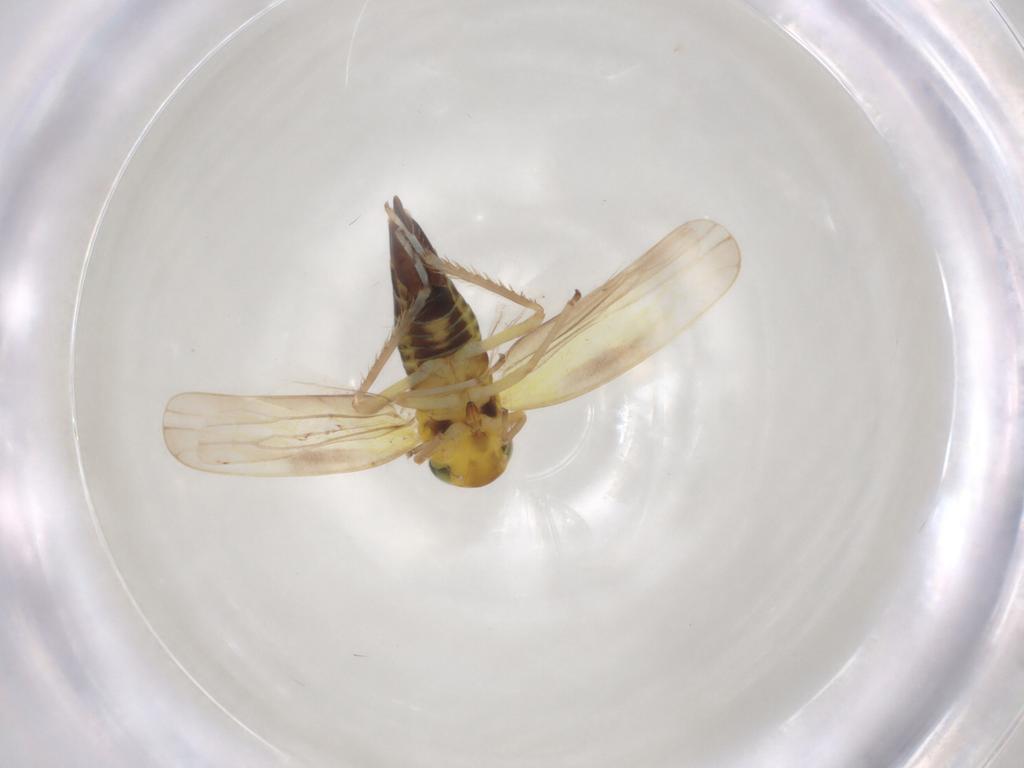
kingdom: Animalia
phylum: Arthropoda
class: Insecta
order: Hemiptera
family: Cicadellidae
